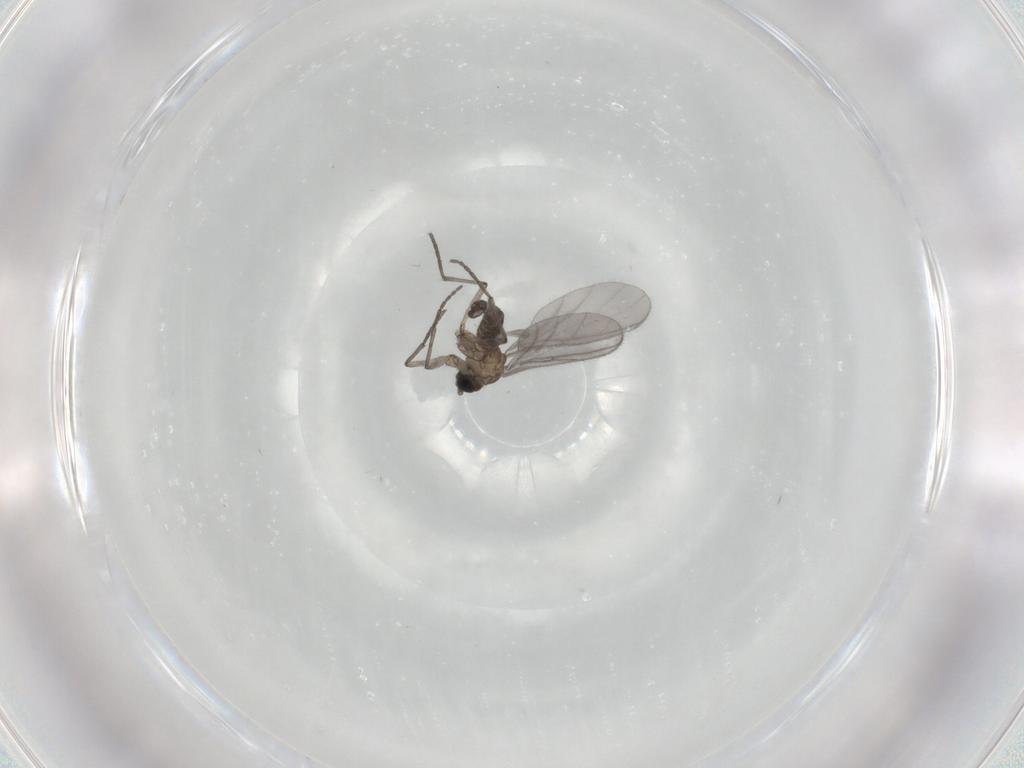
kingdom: Animalia
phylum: Arthropoda
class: Insecta
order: Diptera
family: Sciaridae
